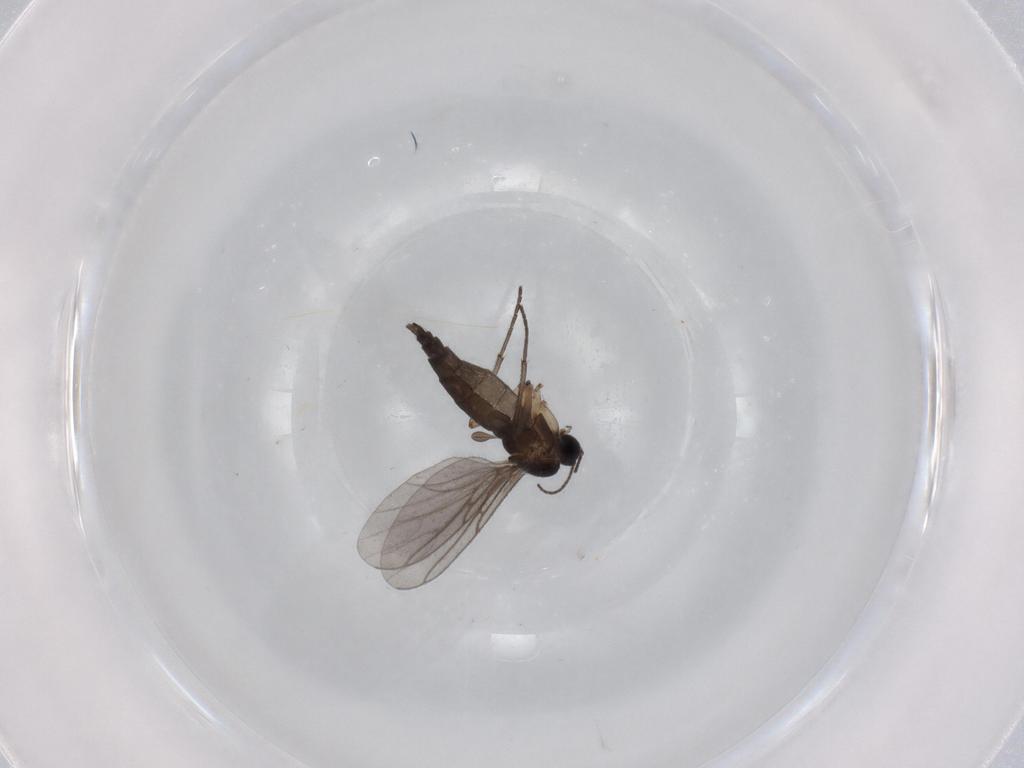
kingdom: Animalia
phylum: Arthropoda
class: Insecta
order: Diptera
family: Sciaridae
